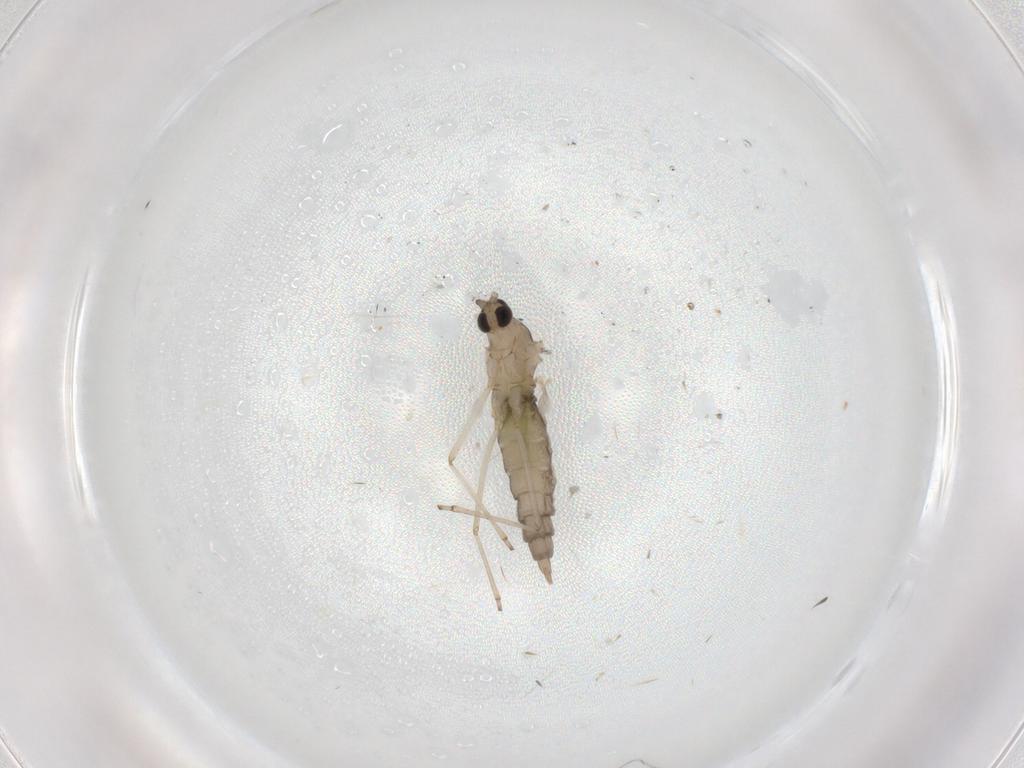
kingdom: Animalia
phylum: Arthropoda
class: Insecta
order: Diptera
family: Cecidomyiidae
